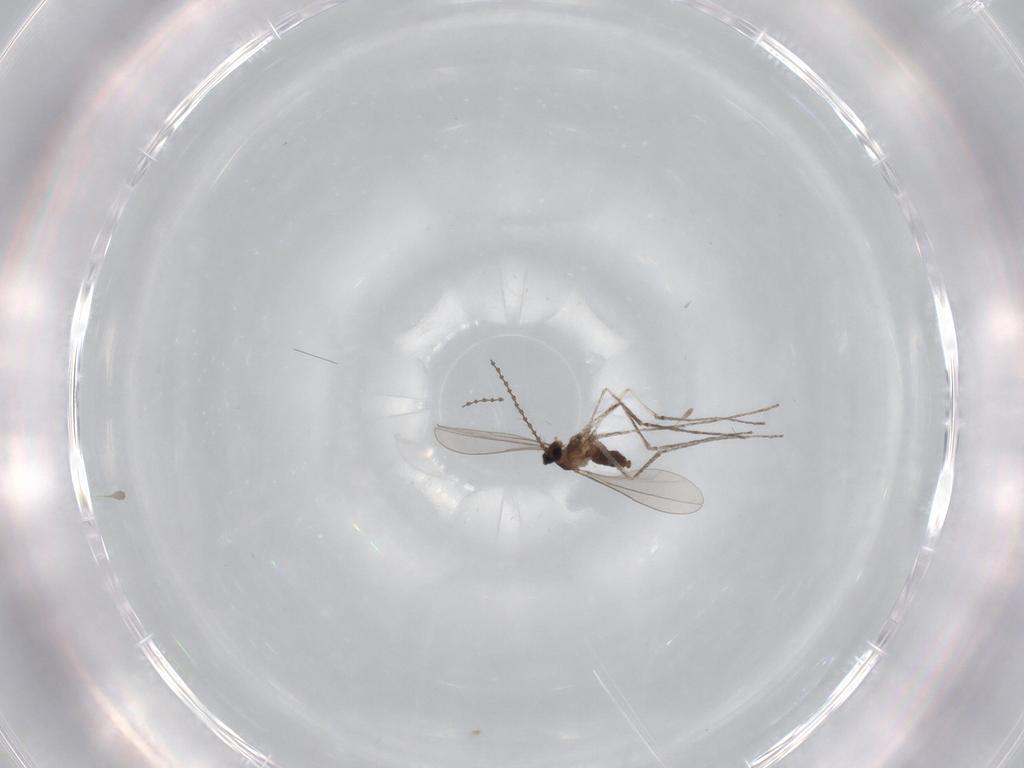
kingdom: Animalia
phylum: Arthropoda
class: Insecta
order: Diptera
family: Cecidomyiidae
